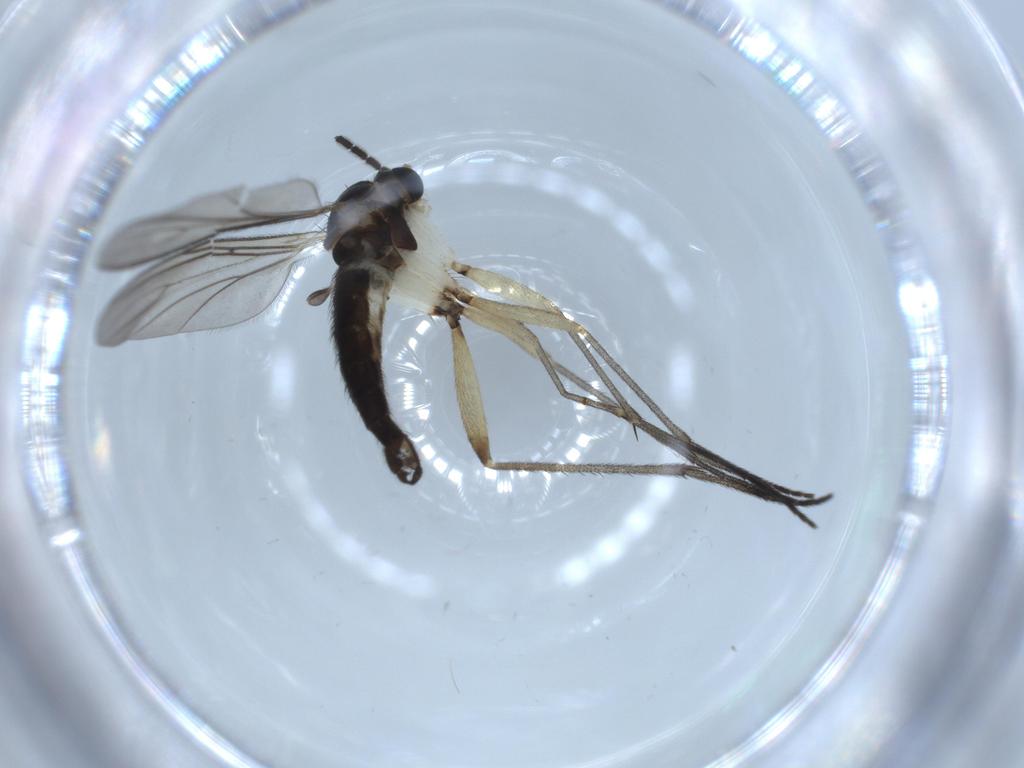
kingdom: Animalia
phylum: Arthropoda
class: Insecta
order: Diptera
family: Sciaridae
